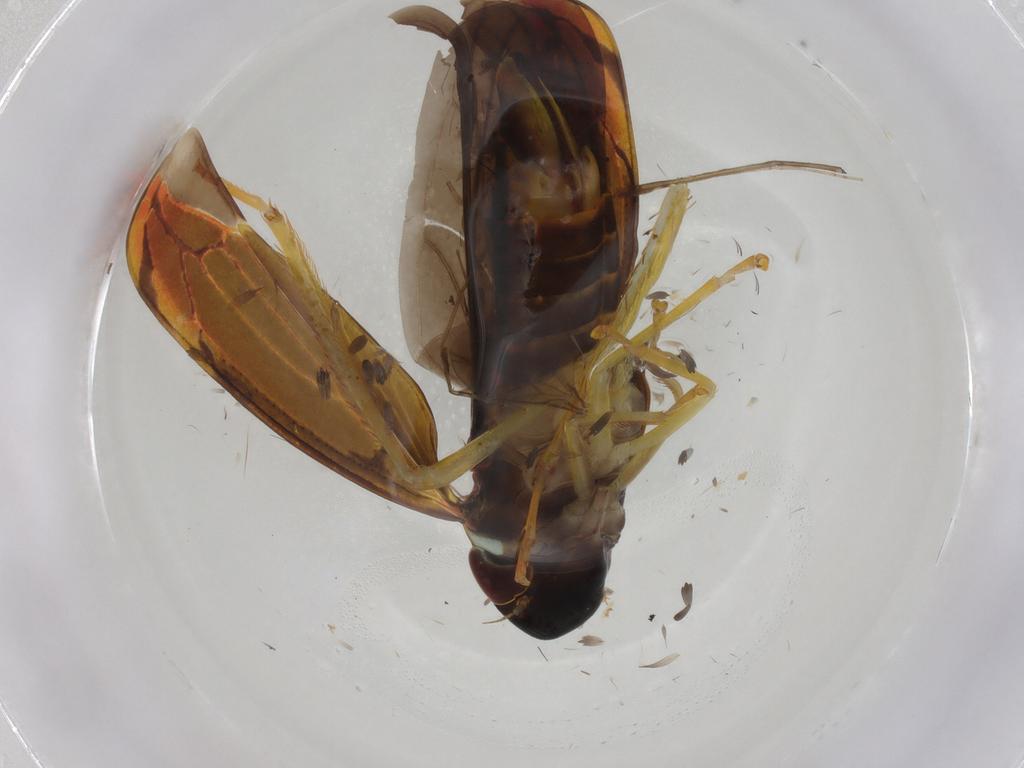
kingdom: Animalia
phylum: Arthropoda
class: Insecta
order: Hemiptera
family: Cicadellidae
